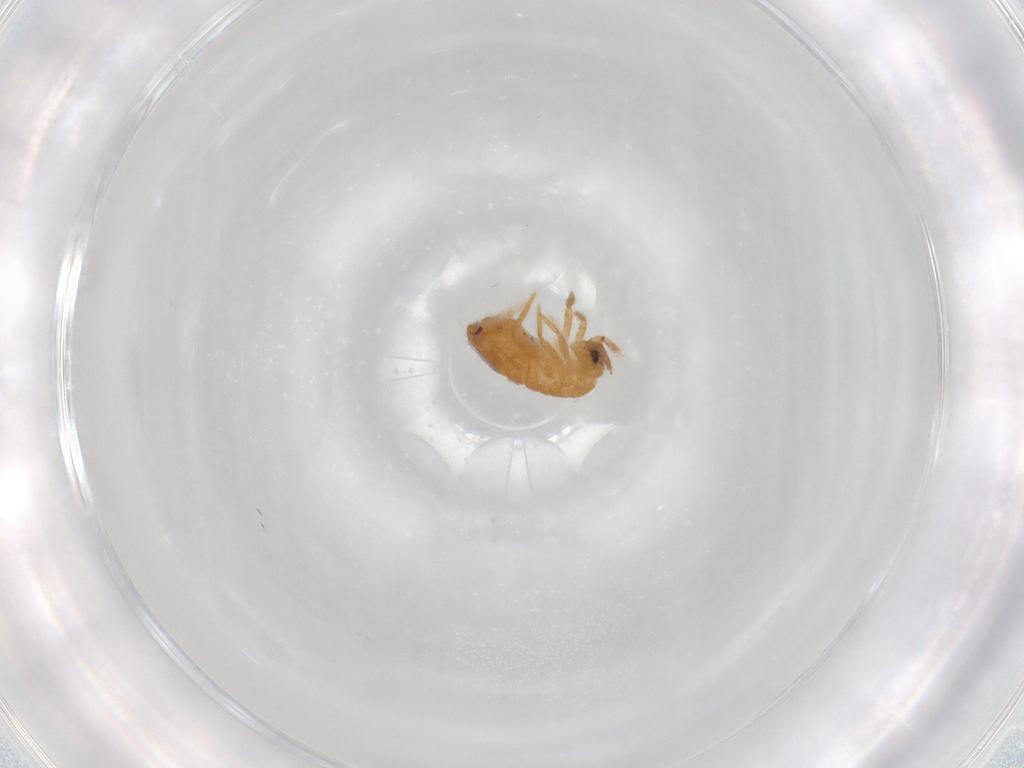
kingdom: Animalia
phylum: Arthropoda
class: Collembola
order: Entomobryomorpha
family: Entomobryidae
